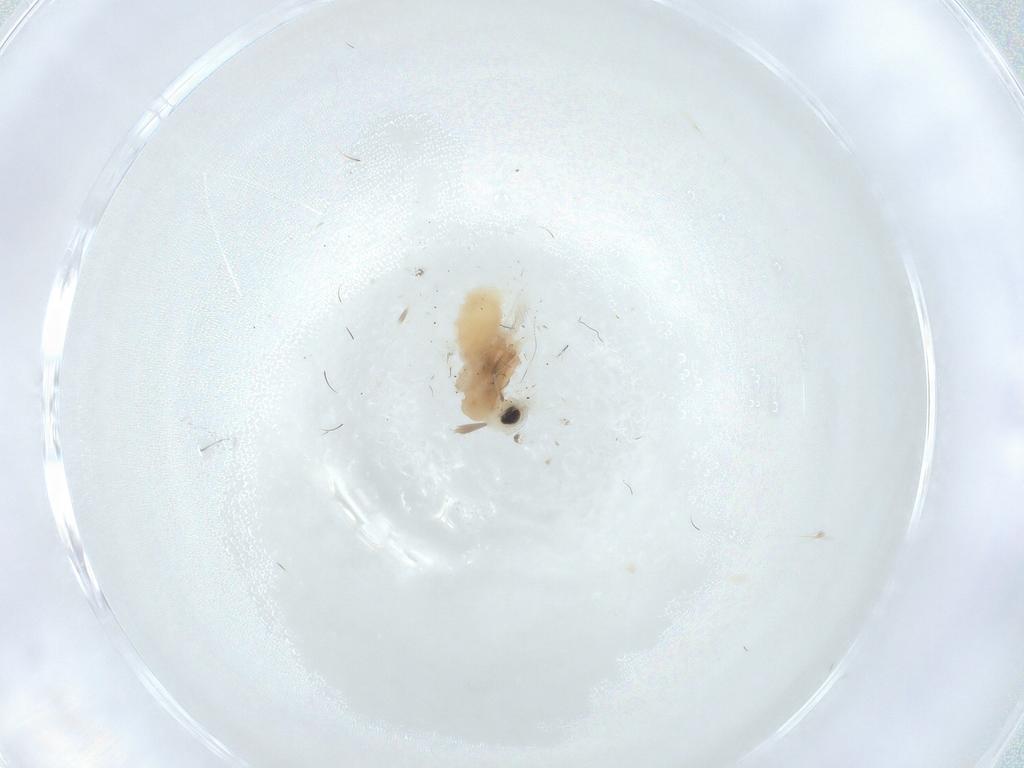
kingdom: Animalia
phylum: Arthropoda
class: Insecta
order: Lepidoptera
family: Gelechiidae
